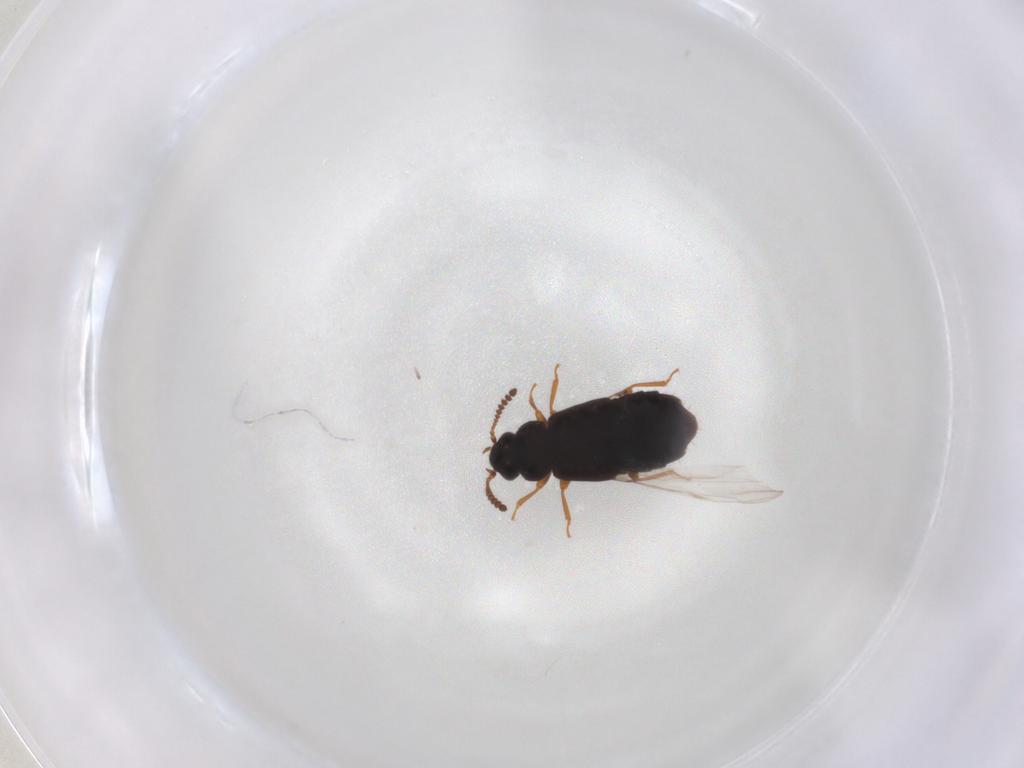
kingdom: Animalia
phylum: Arthropoda
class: Insecta
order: Coleoptera
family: Staphylinidae
